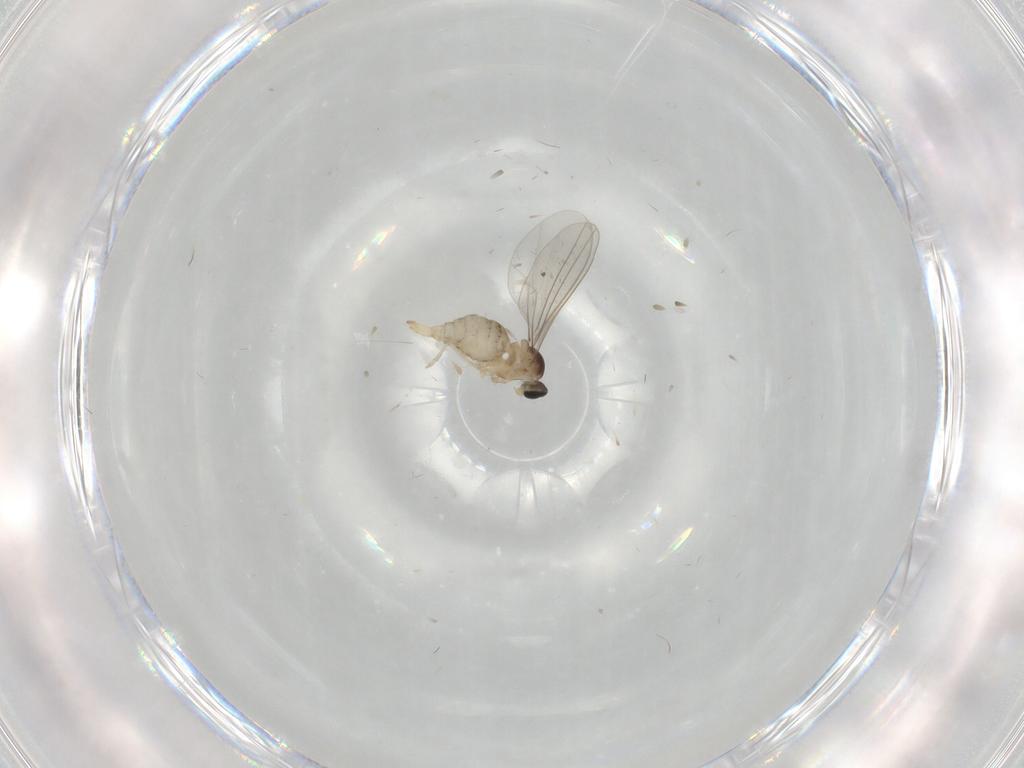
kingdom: Animalia
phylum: Arthropoda
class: Insecta
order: Diptera
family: Cecidomyiidae
